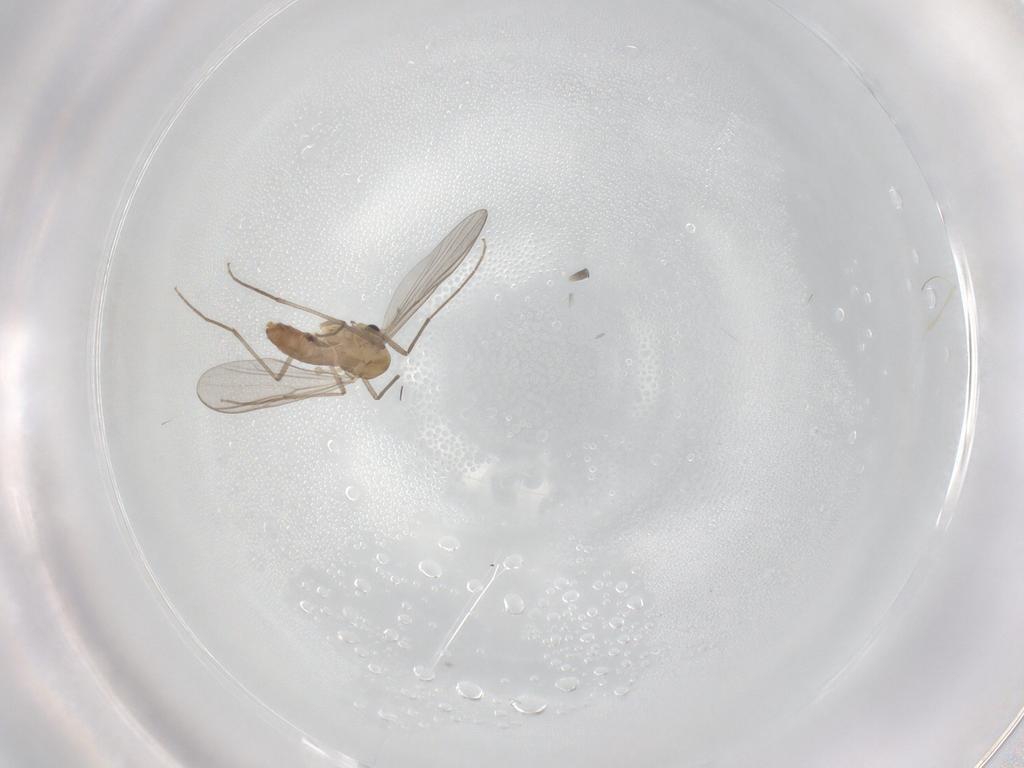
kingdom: Animalia
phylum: Arthropoda
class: Insecta
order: Diptera
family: Chironomidae
